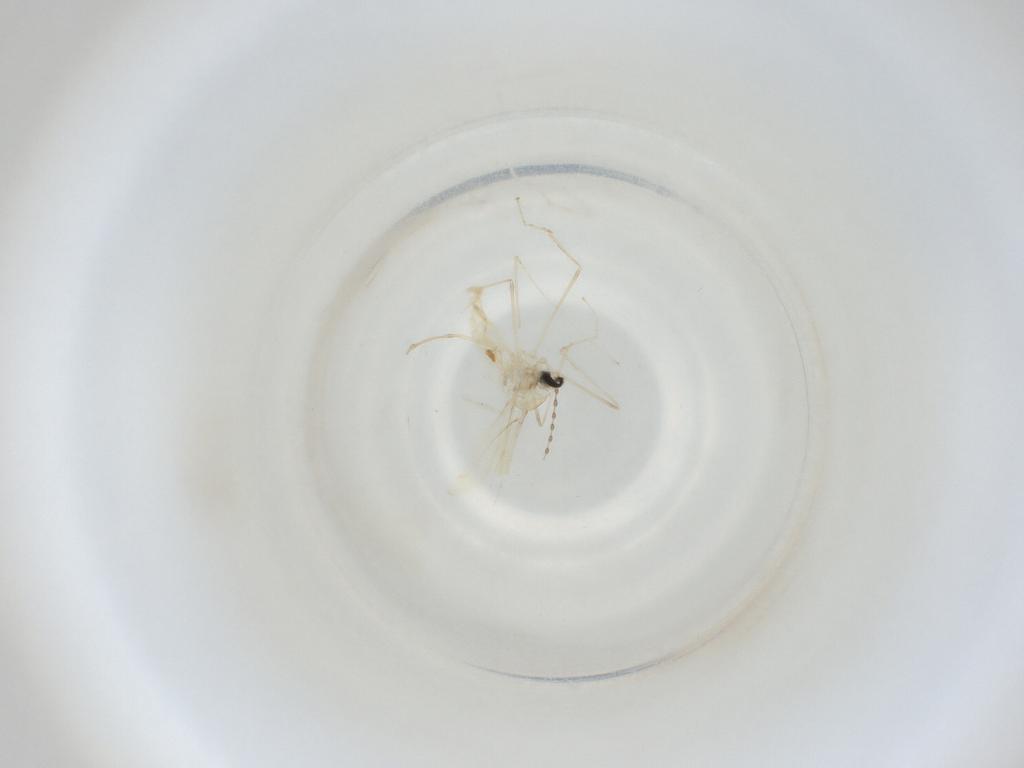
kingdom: Animalia
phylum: Arthropoda
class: Insecta
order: Diptera
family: Cecidomyiidae
